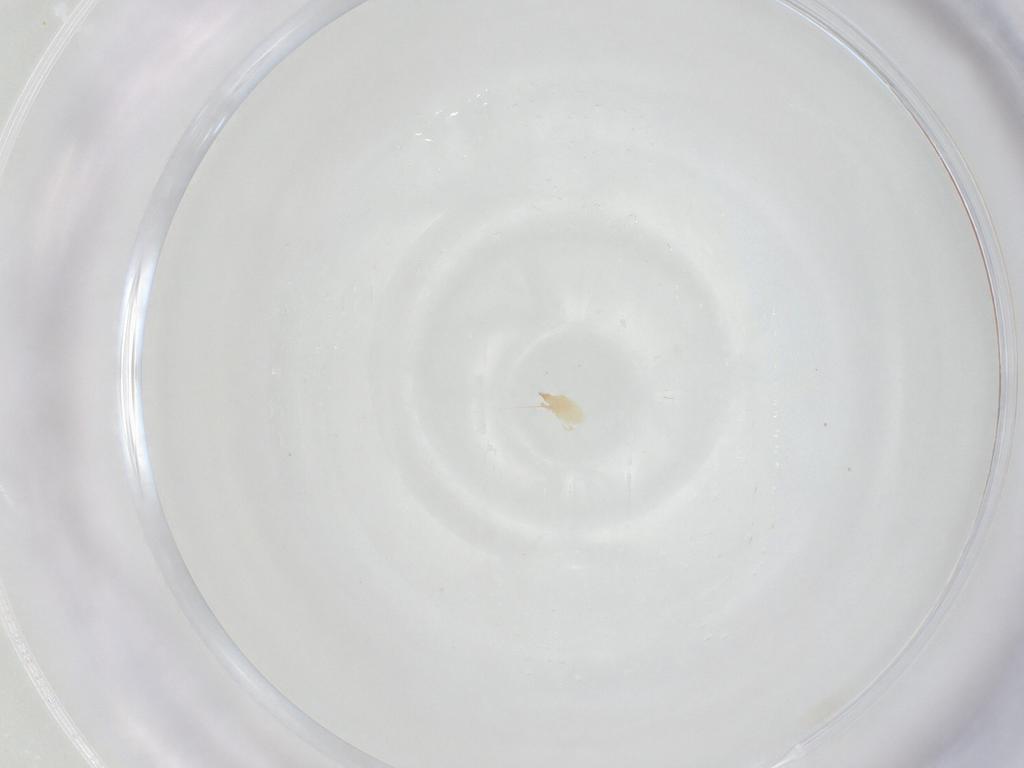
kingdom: Animalia
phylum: Arthropoda
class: Arachnida
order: Trombidiformes
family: Cunaxidae
